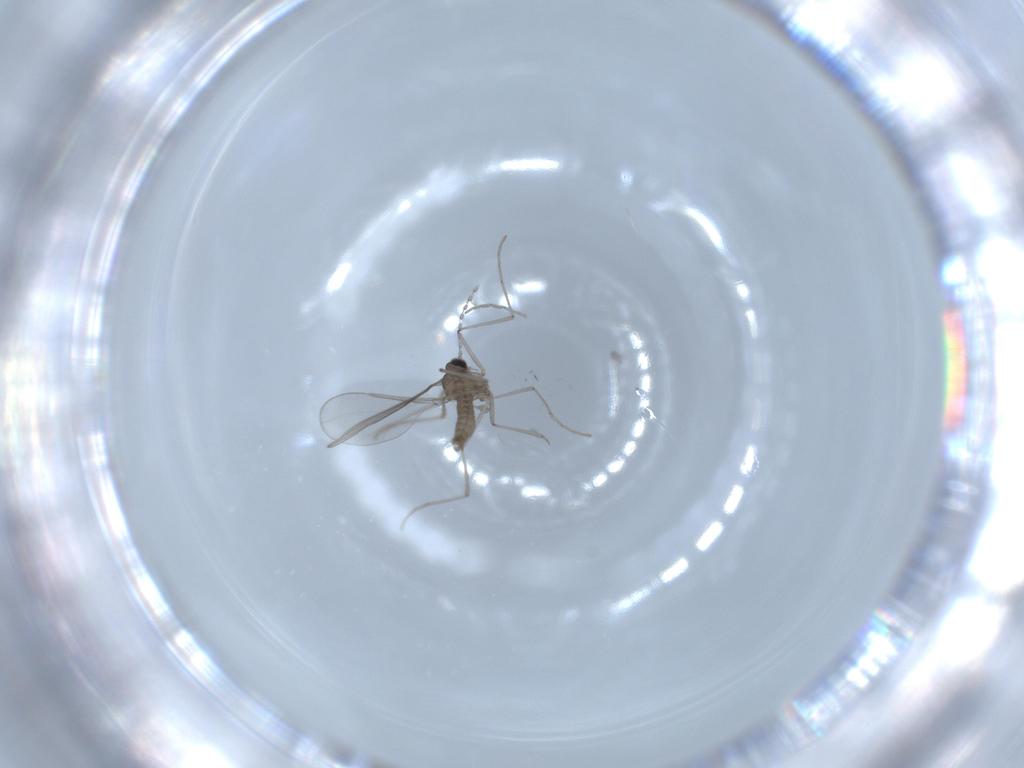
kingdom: Animalia
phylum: Arthropoda
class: Insecta
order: Diptera
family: Cecidomyiidae
